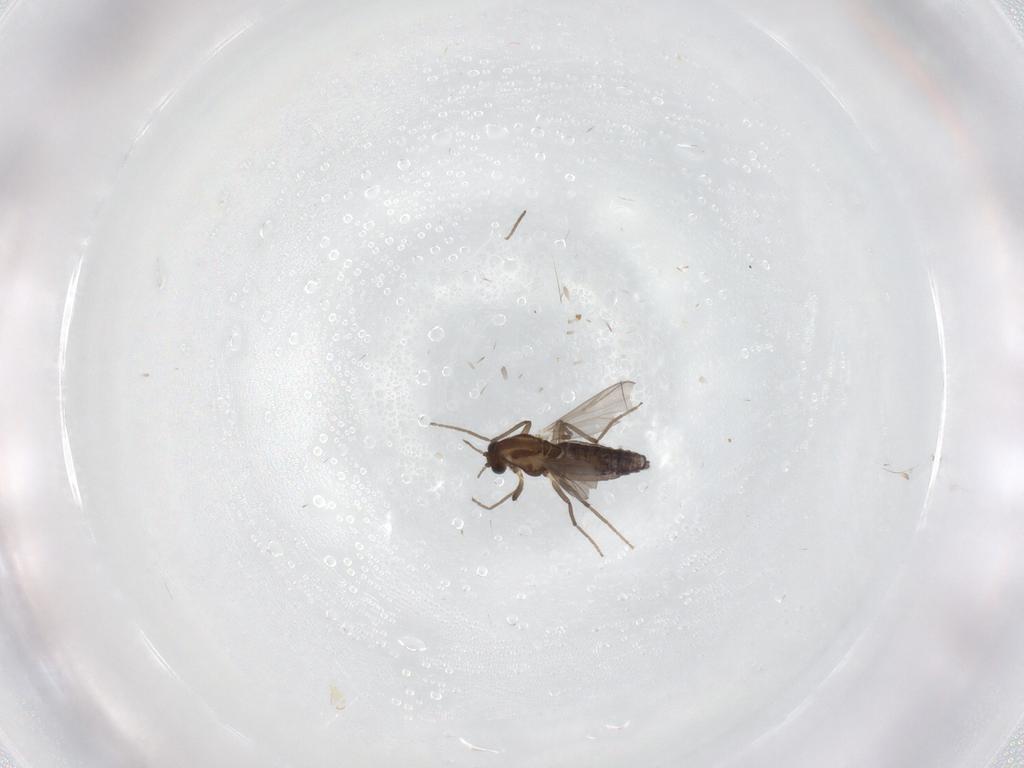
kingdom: Animalia
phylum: Arthropoda
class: Insecta
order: Diptera
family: Chironomidae
